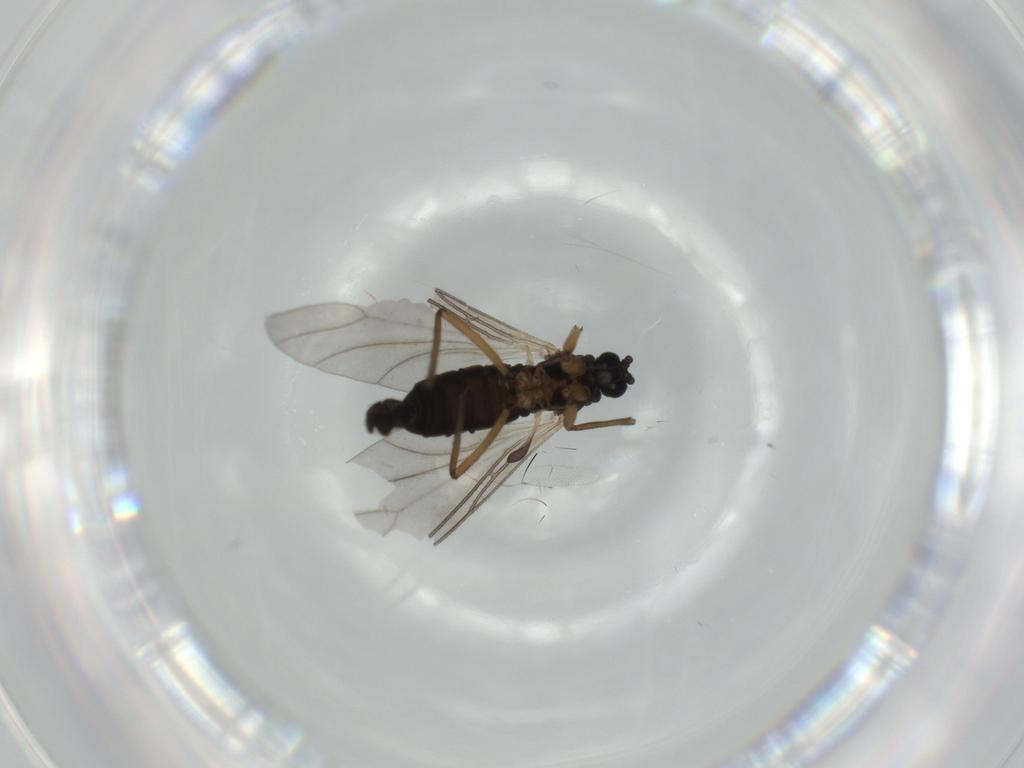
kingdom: Animalia
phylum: Arthropoda
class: Insecta
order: Diptera
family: Sciaridae
